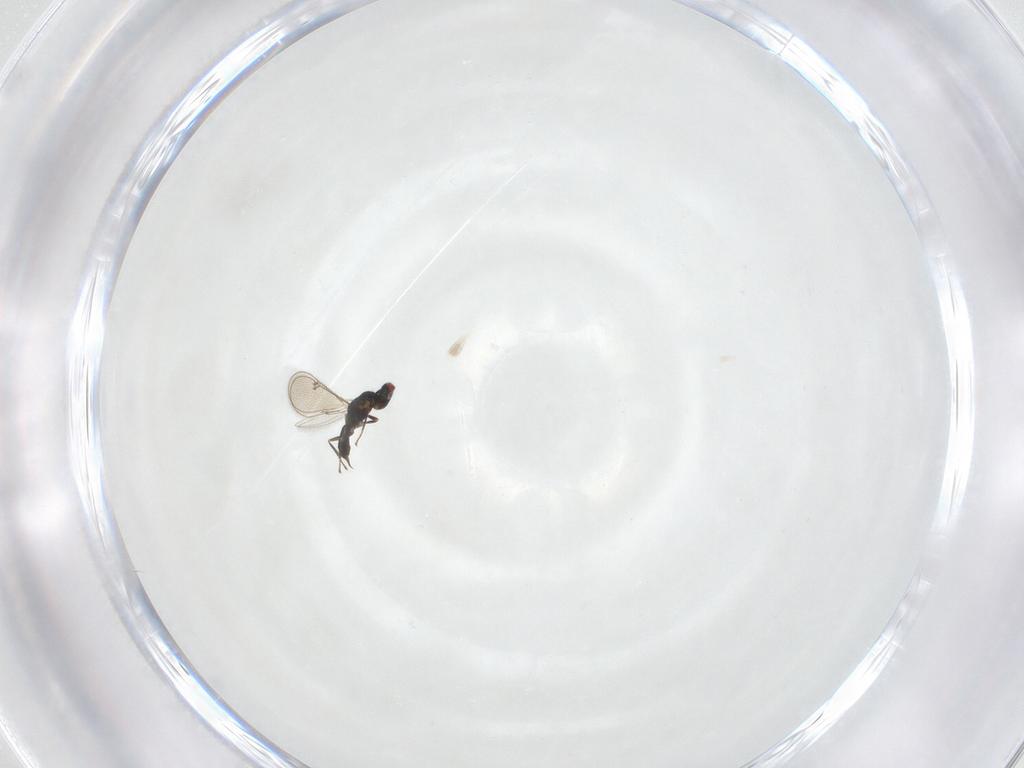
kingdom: Animalia
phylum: Arthropoda
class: Insecta
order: Hymenoptera
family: Eulophidae
